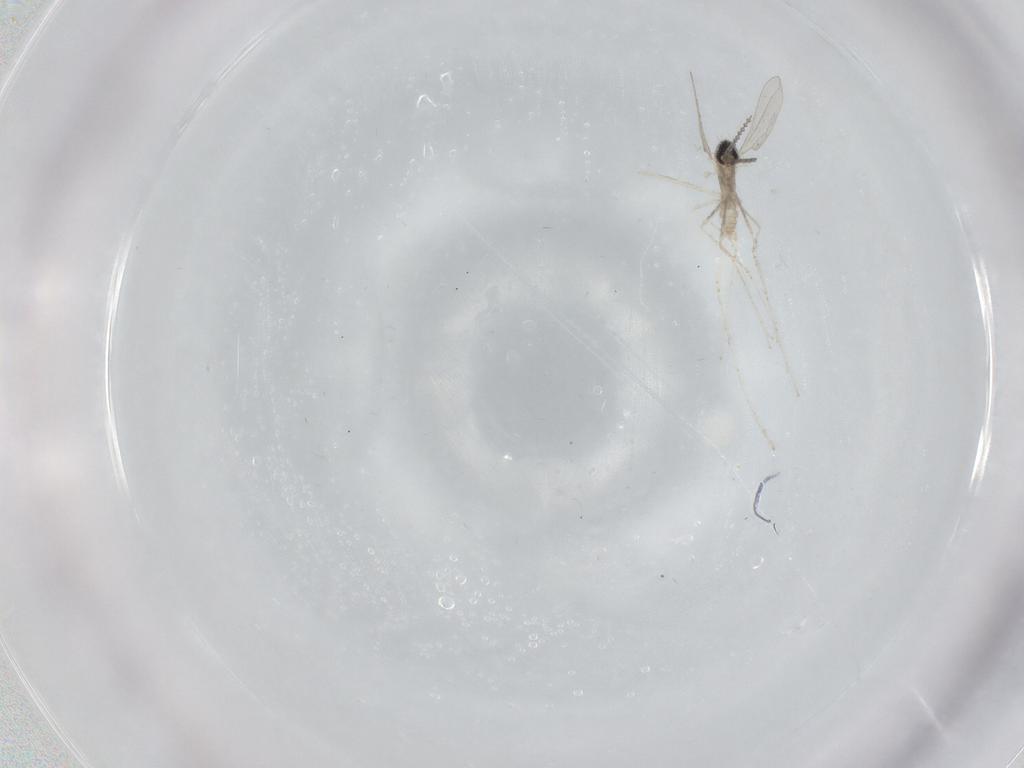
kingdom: Animalia
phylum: Arthropoda
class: Insecta
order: Diptera
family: Cecidomyiidae
